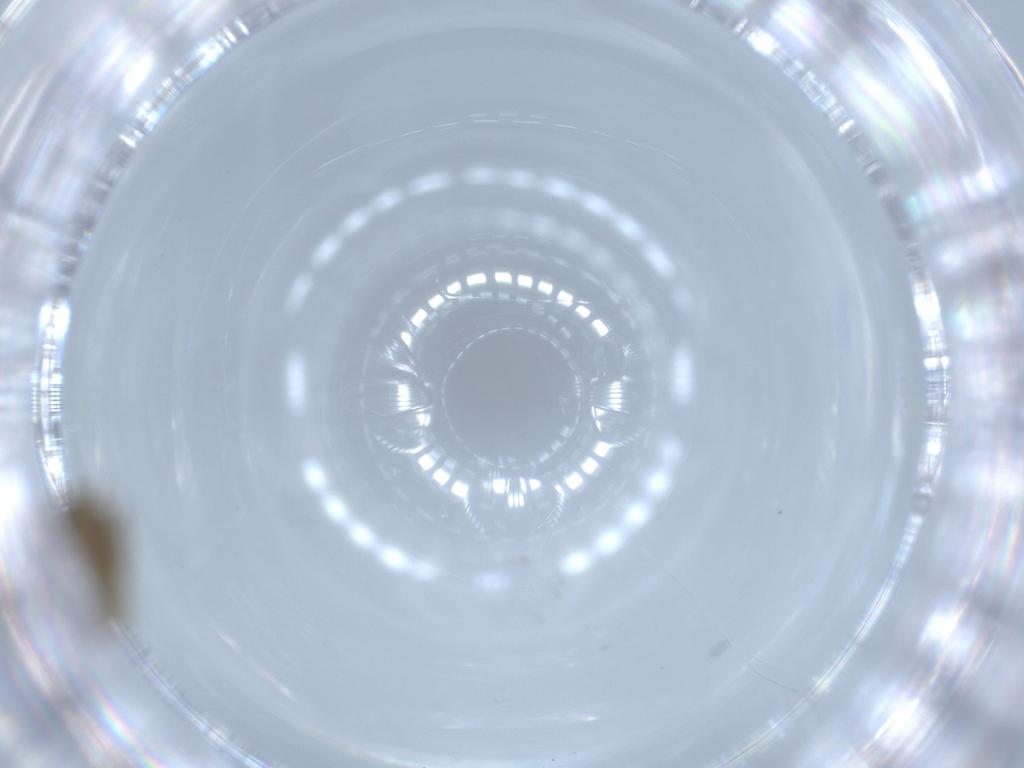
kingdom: Animalia
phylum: Arthropoda
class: Insecta
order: Diptera
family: Chironomidae
